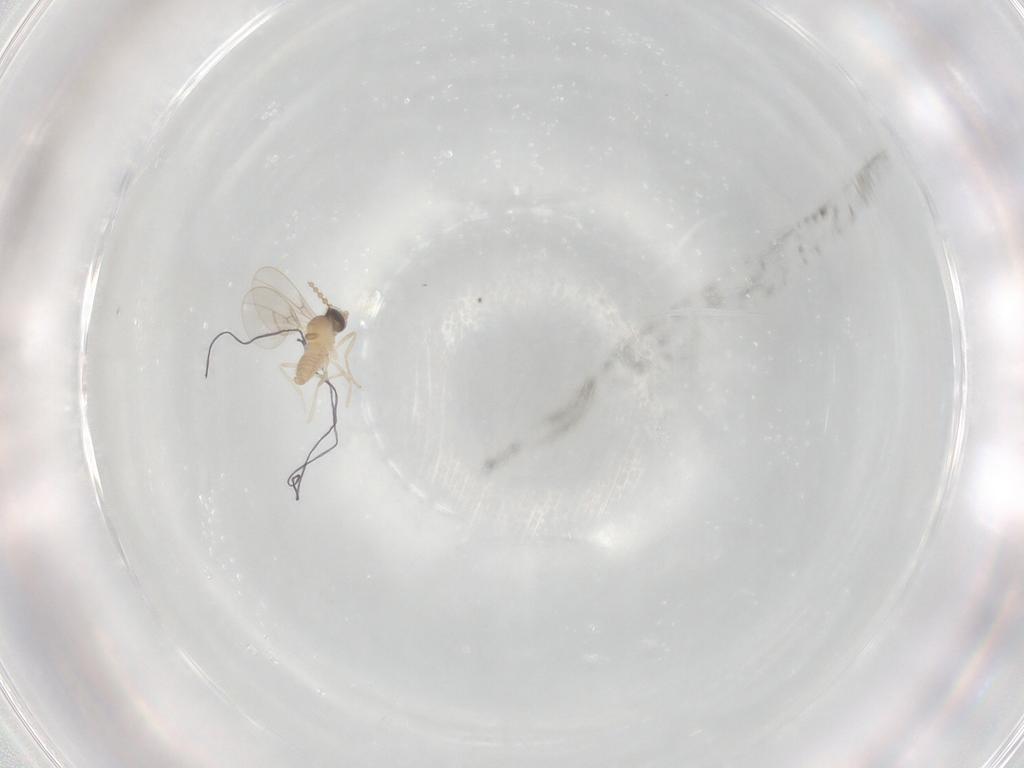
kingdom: Animalia
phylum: Arthropoda
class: Insecta
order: Diptera
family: Cecidomyiidae
